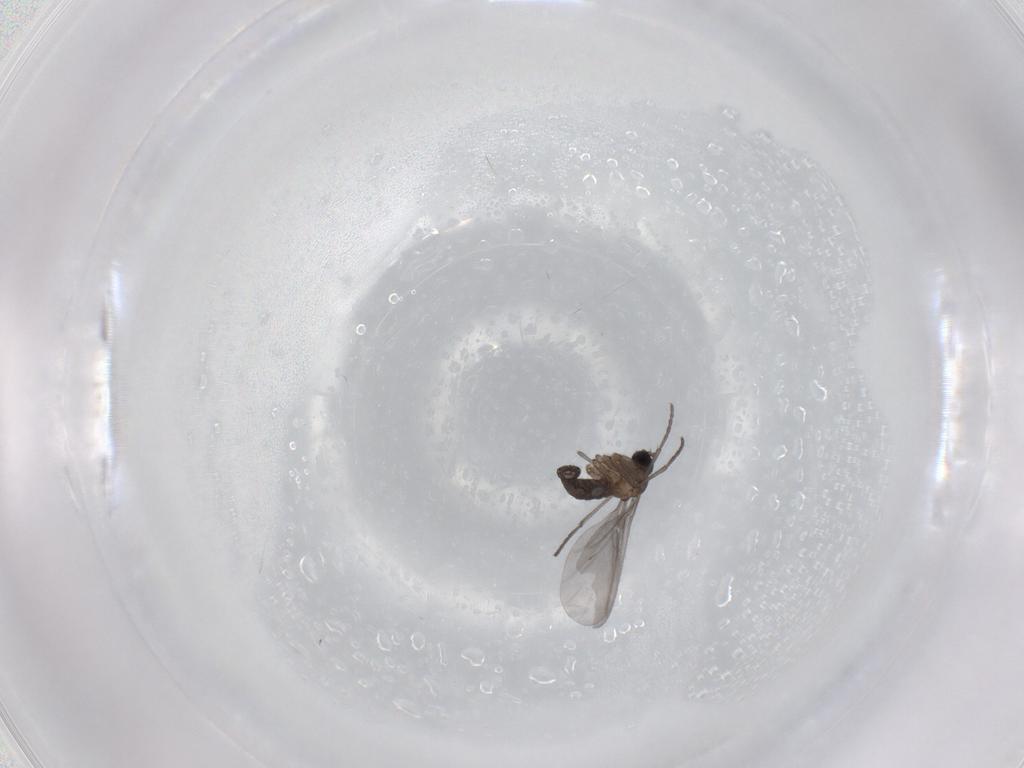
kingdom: Animalia
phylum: Arthropoda
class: Insecta
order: Diptera
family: Sciaridae
